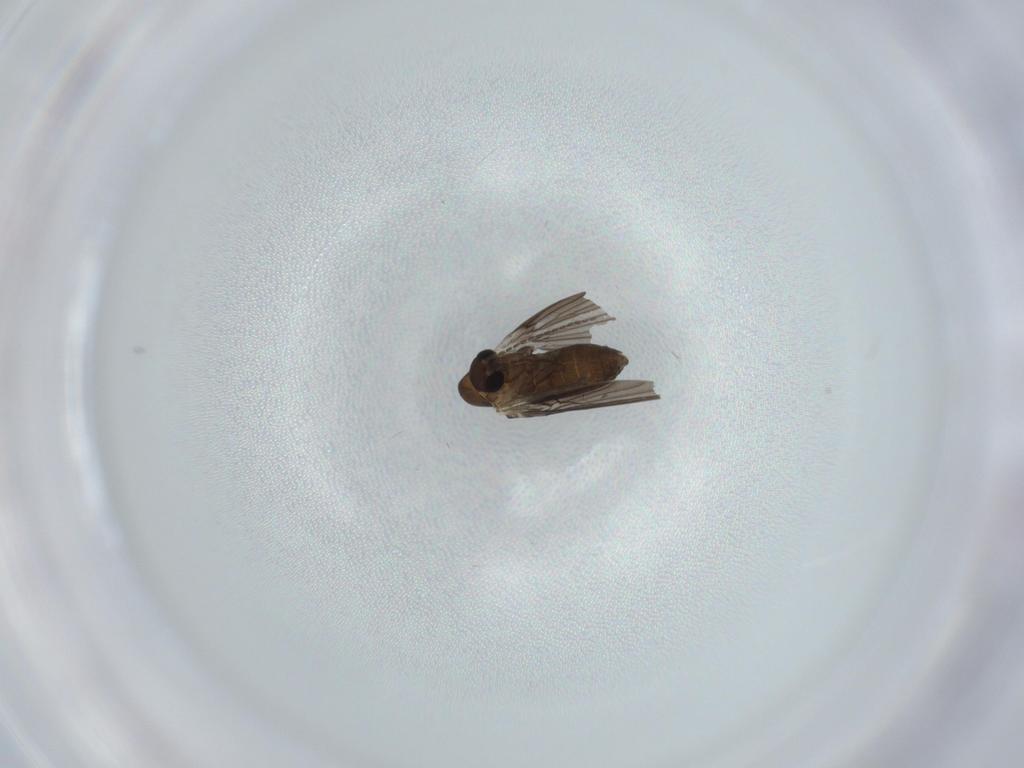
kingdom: Animalia
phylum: Arthropoda
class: Insecta
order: Diptera
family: Psychodidae
